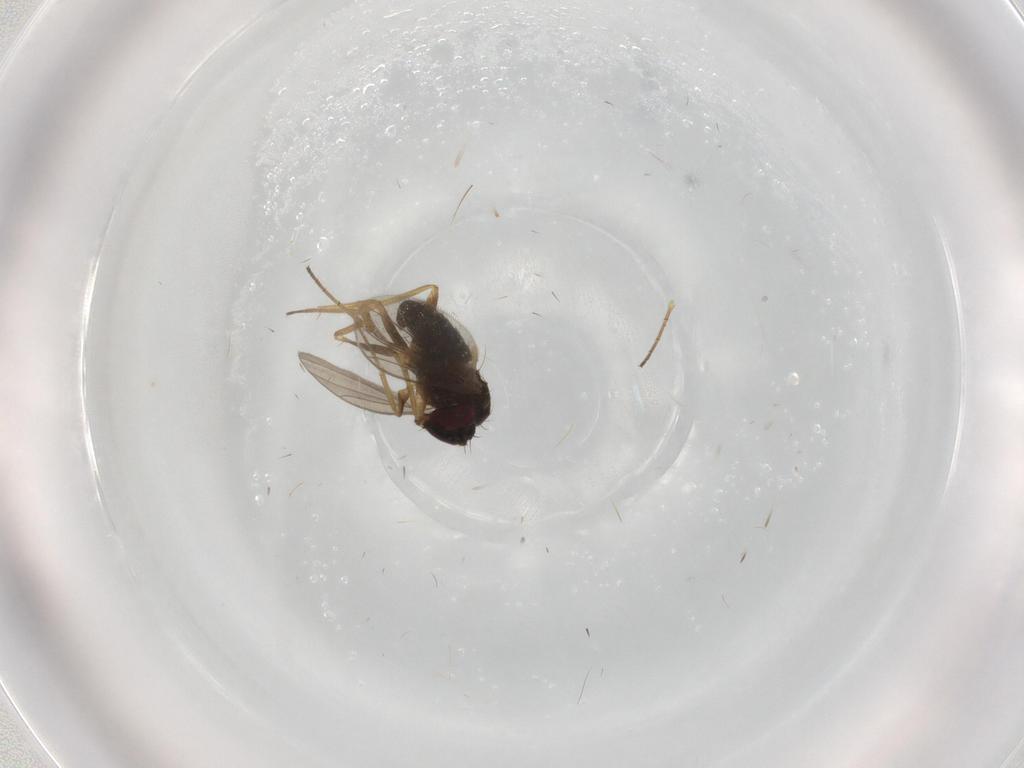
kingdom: Animalia
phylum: Arthropoda
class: Insecta
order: Diptera
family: Dolichopodidae
